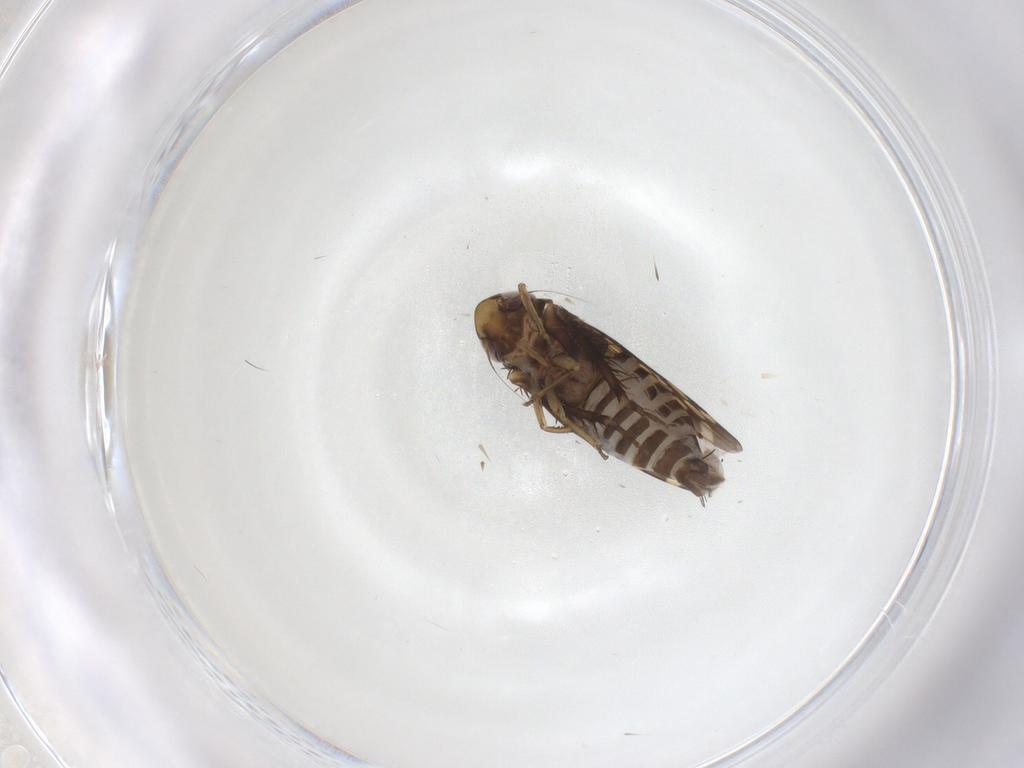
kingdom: Animalia
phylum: Arthropoda
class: Insecta
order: Hemiptera
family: Cicadellidae
